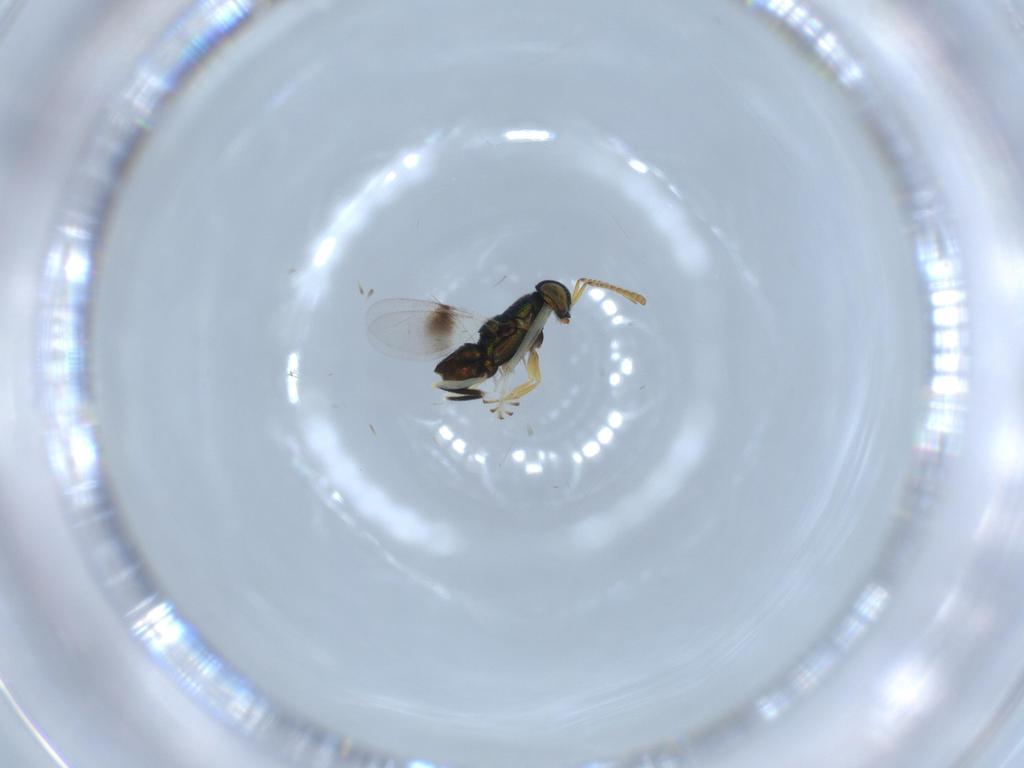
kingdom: Animalia
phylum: Arthropoda
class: Insecta
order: Hymenoptera
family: Encyrtidae
